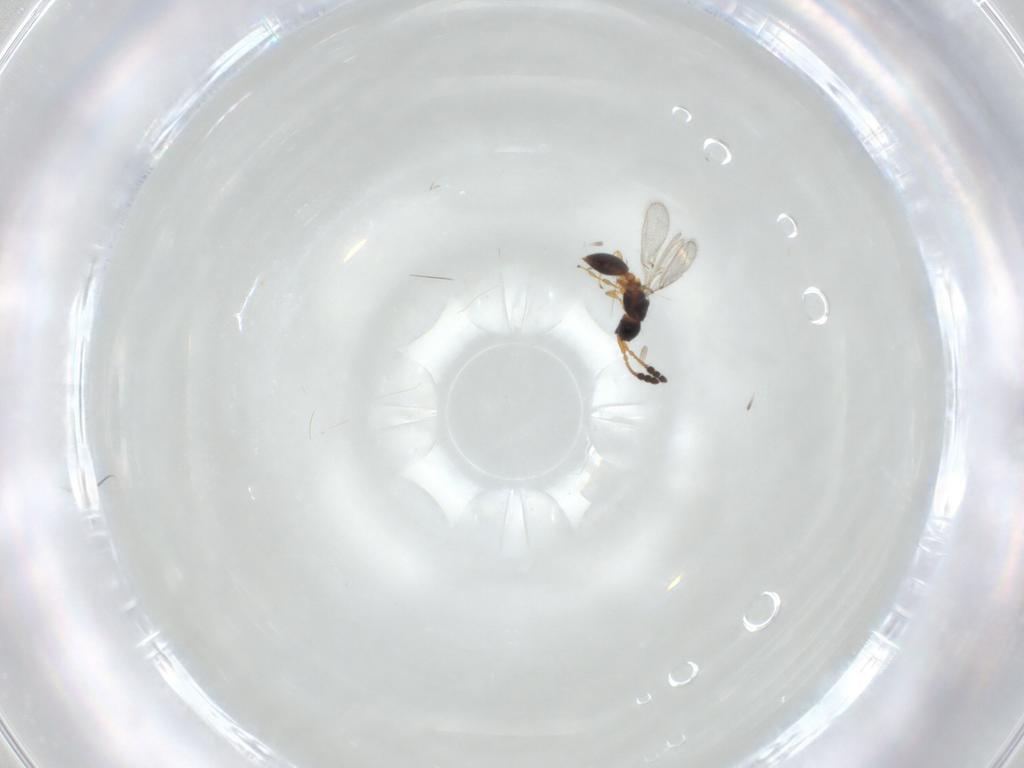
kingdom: Animalia
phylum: Arthropoda
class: Insecta
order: Hymenoptera
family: Diapriidae
